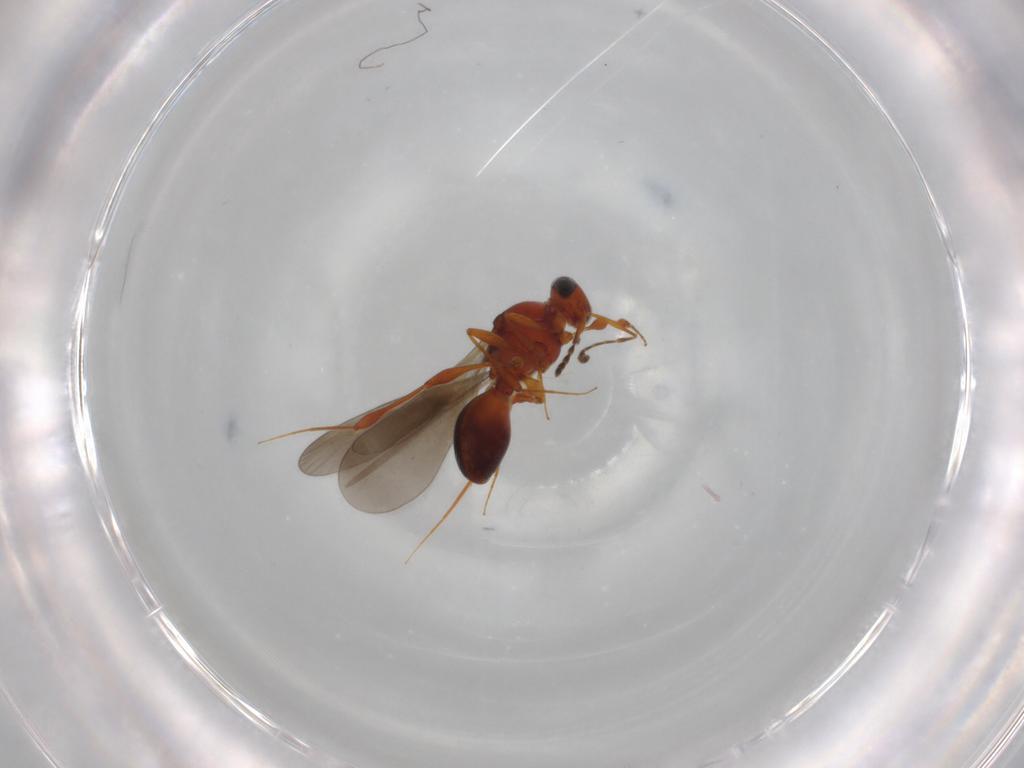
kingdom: Animalia
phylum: Arthropoda
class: Insecta
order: Hymenoptera
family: Platygastridae
